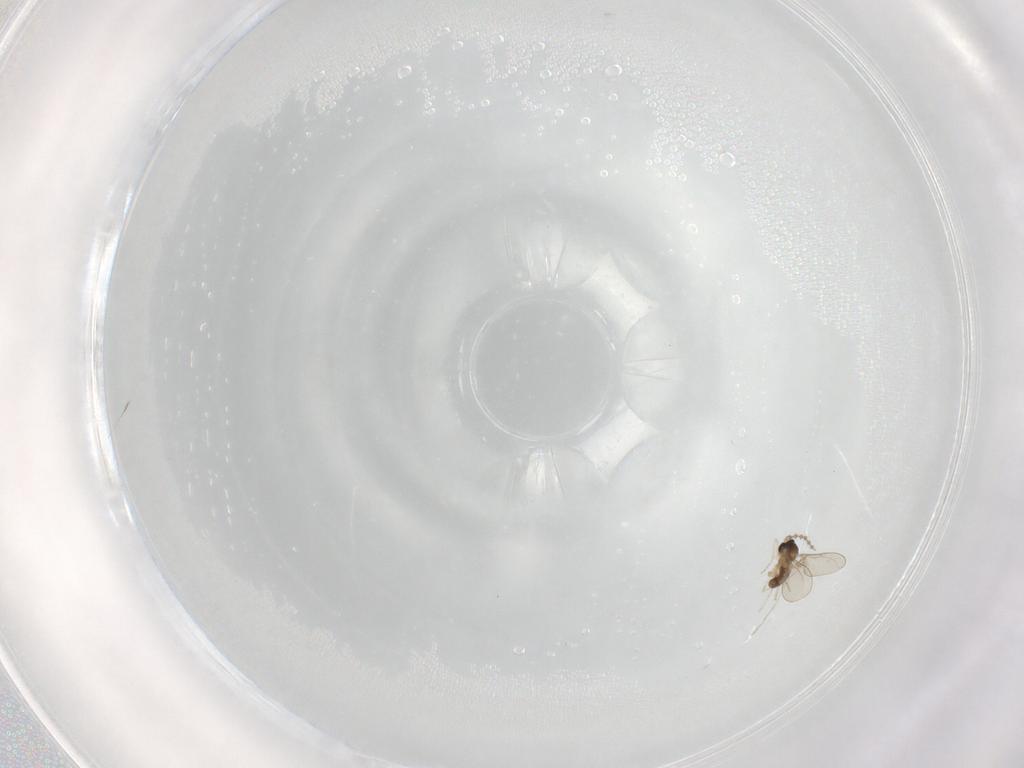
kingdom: Animalia
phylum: Arthropoda
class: Insecta
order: Diptera
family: Cecidomyiidae
